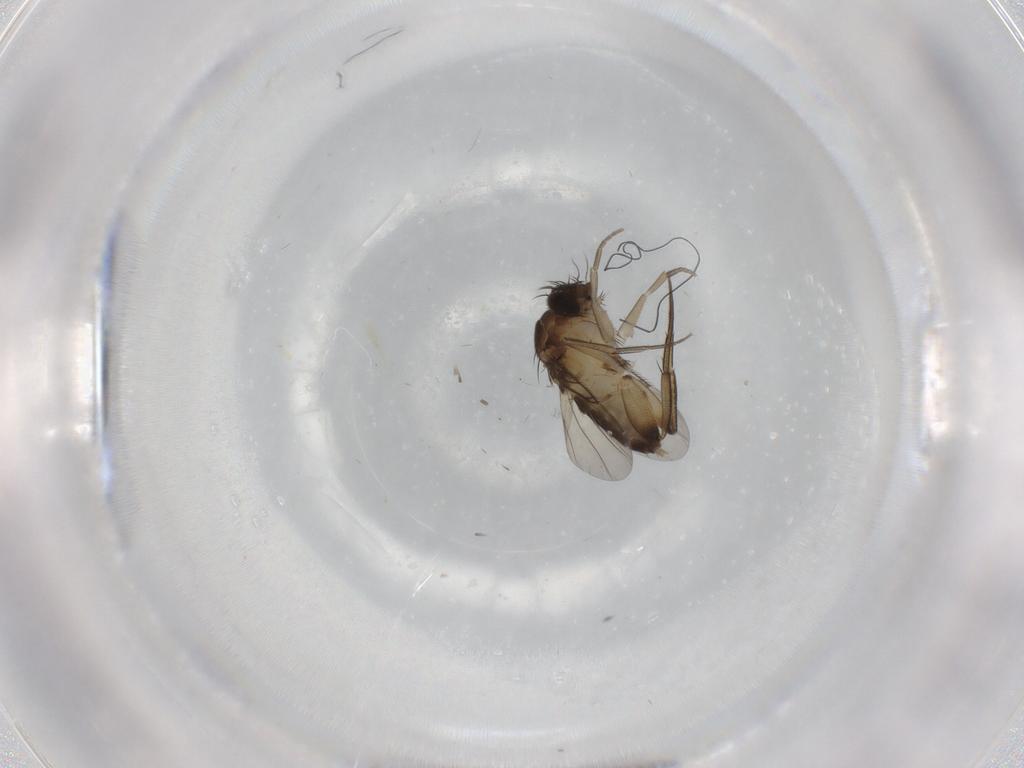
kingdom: Animalia
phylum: Arthropoda
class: Insecta
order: Diptera
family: Phoridae
